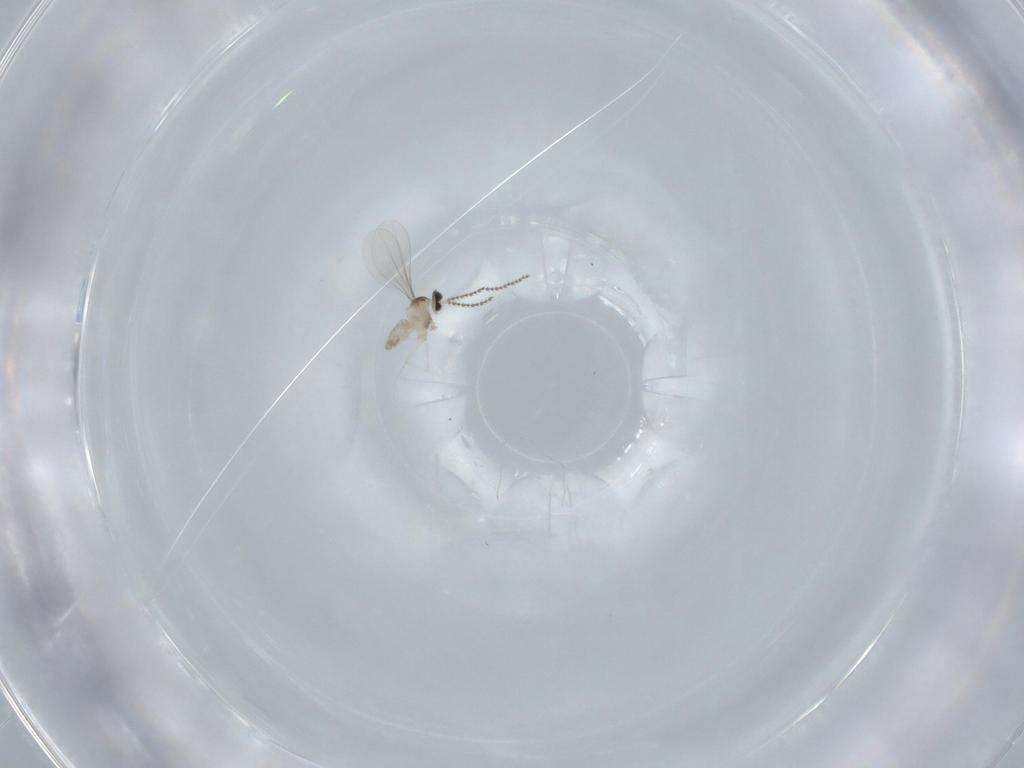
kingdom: Animalia
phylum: Arthropoda
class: Insecta
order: Diptera
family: Cecidomyiidae
